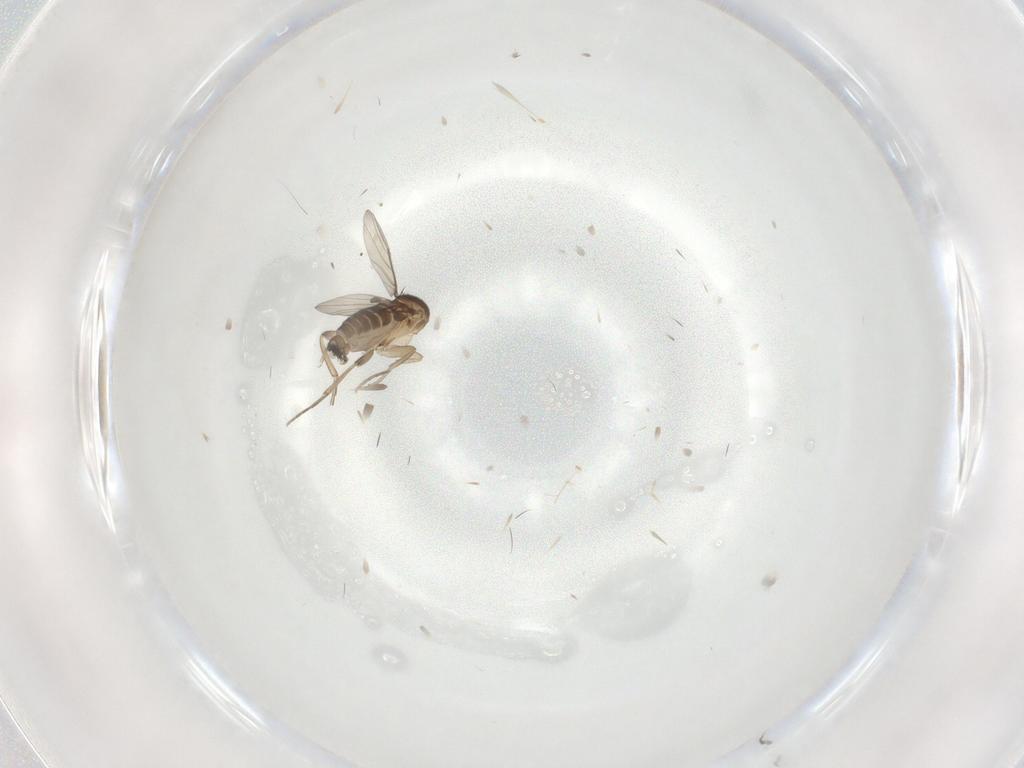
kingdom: Animalia
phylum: Arthropoda
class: Insecta
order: Diptera
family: Phoridae
